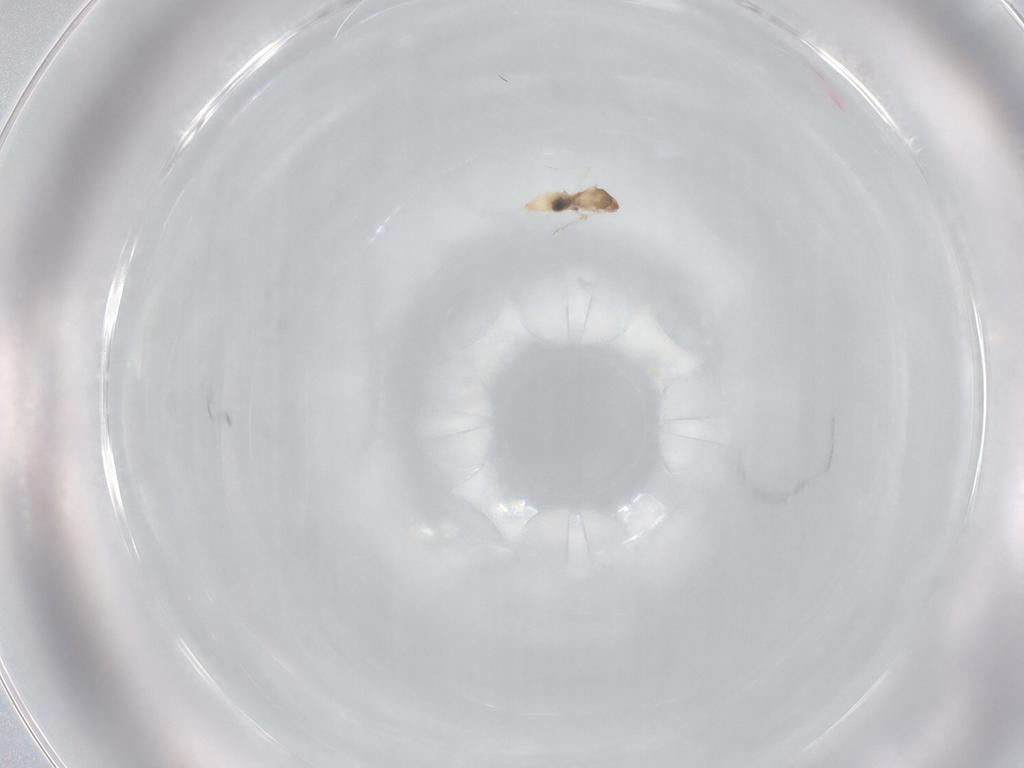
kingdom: Animalia
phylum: Arthropoda
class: Insecta
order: Diptera
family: Cecidomyiidae
